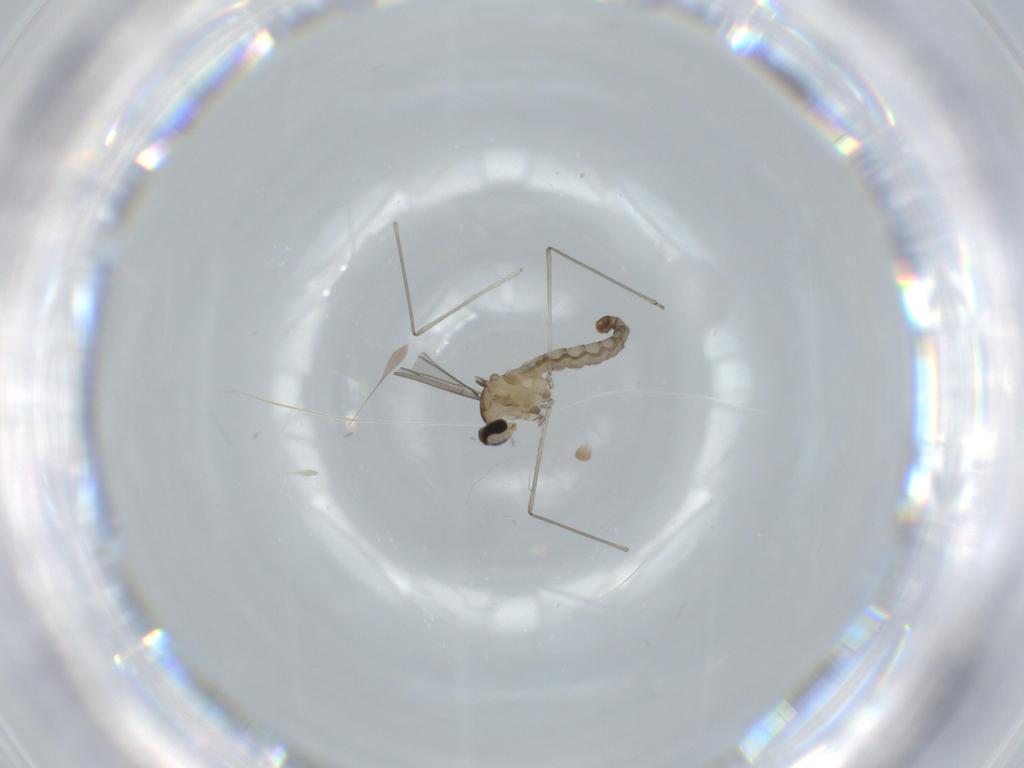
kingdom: Animalia
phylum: Arthropoda
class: Insecta
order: Diptera
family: Cecidomyiidae
